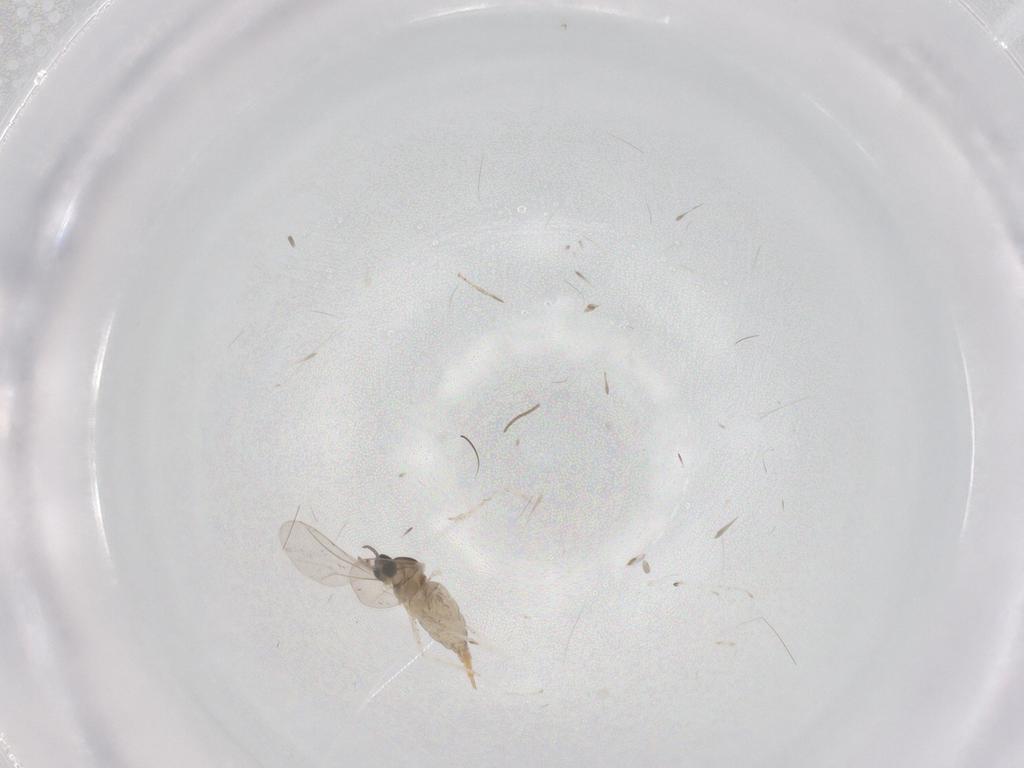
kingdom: Animalia
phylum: Arthropoda
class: Insecta
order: Diptera
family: Cecidomyiidae
